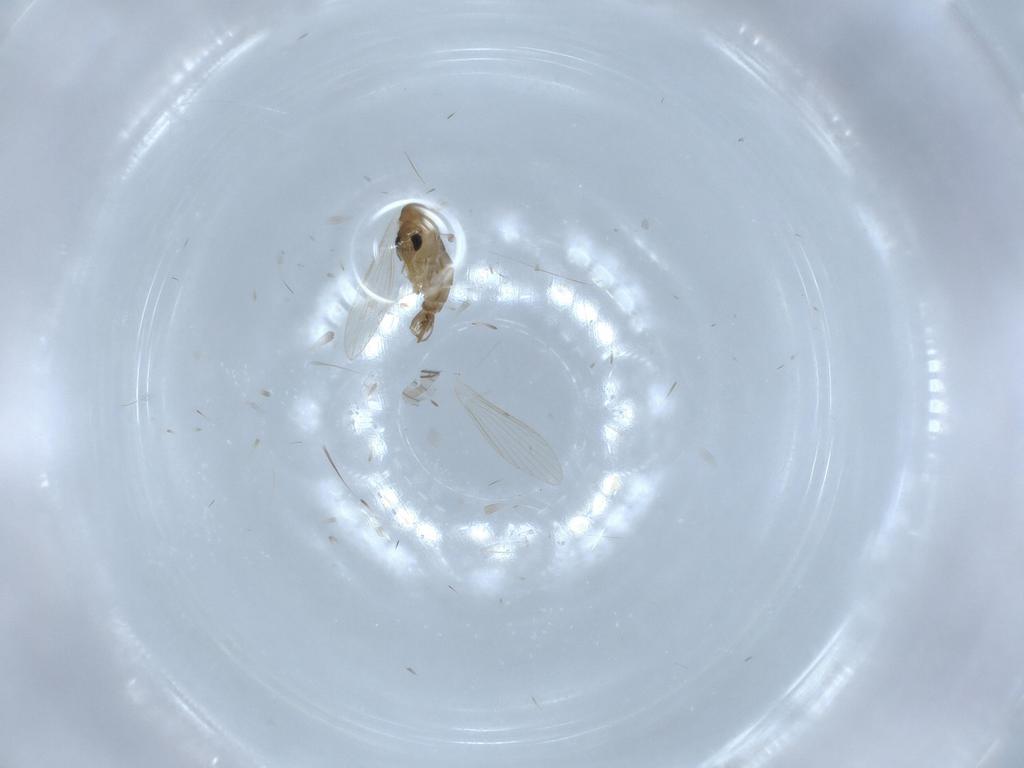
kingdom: Animalia
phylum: Arthropoda
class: Insecta
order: Diptera
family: Psychodidae
